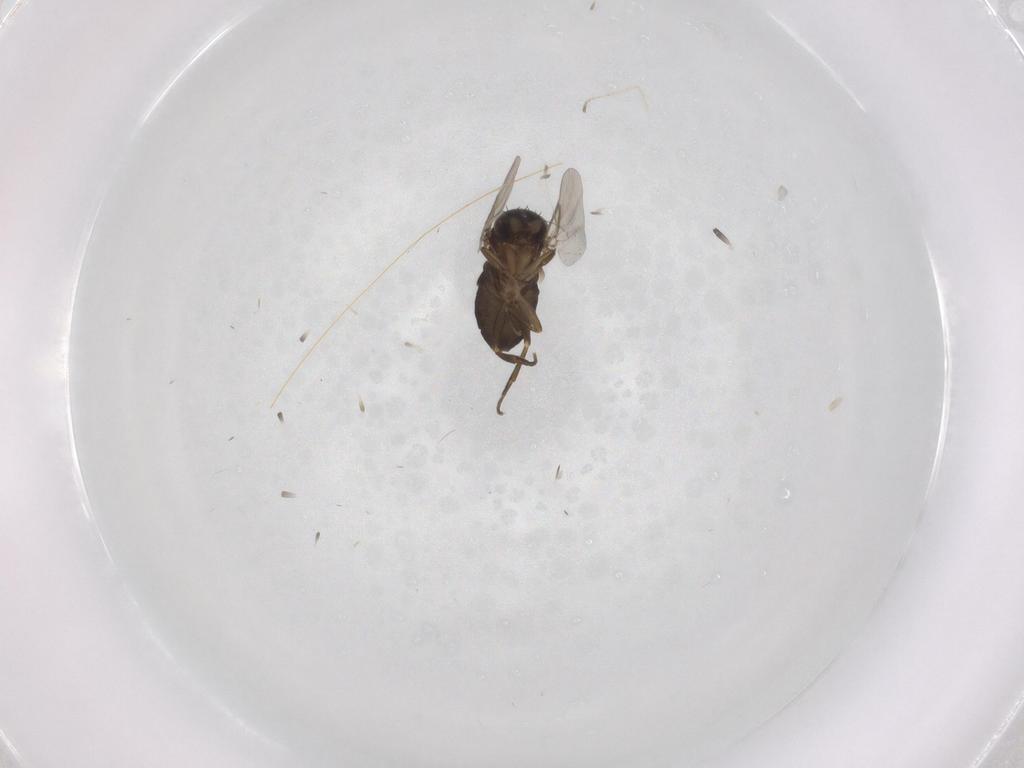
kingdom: Animalia
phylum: Arthropoda
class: Insecta
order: Diptera
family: Phoridae
